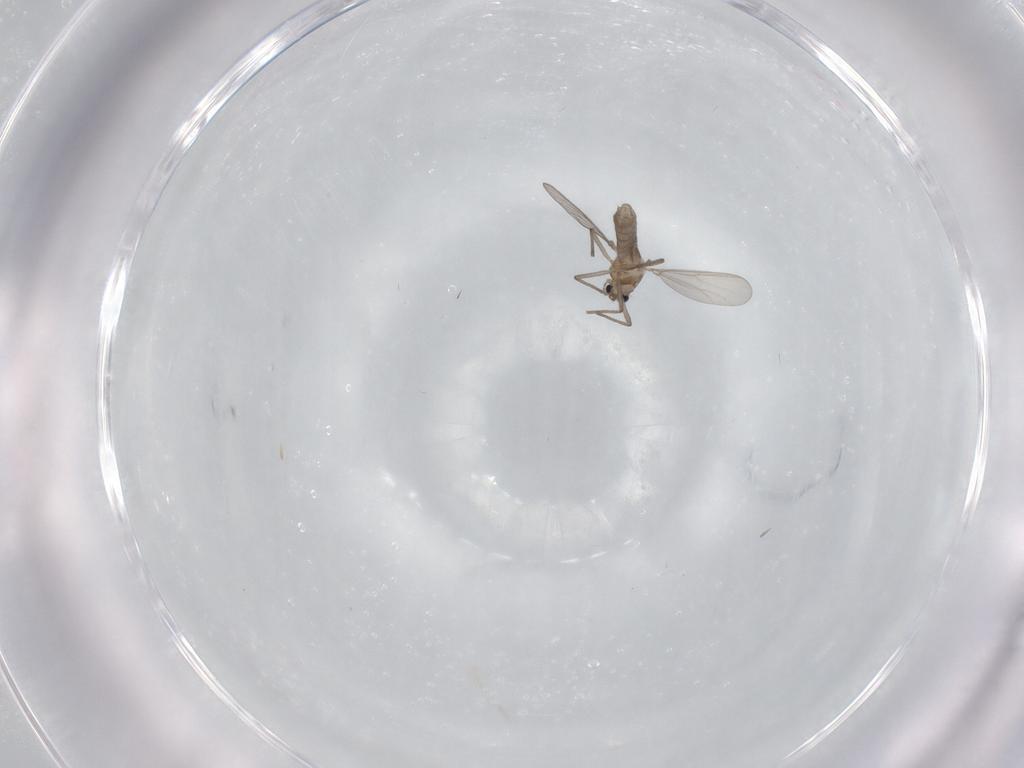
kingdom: Animalia
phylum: Arthropoda
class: Insecta
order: Diptera
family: Chironomidae
